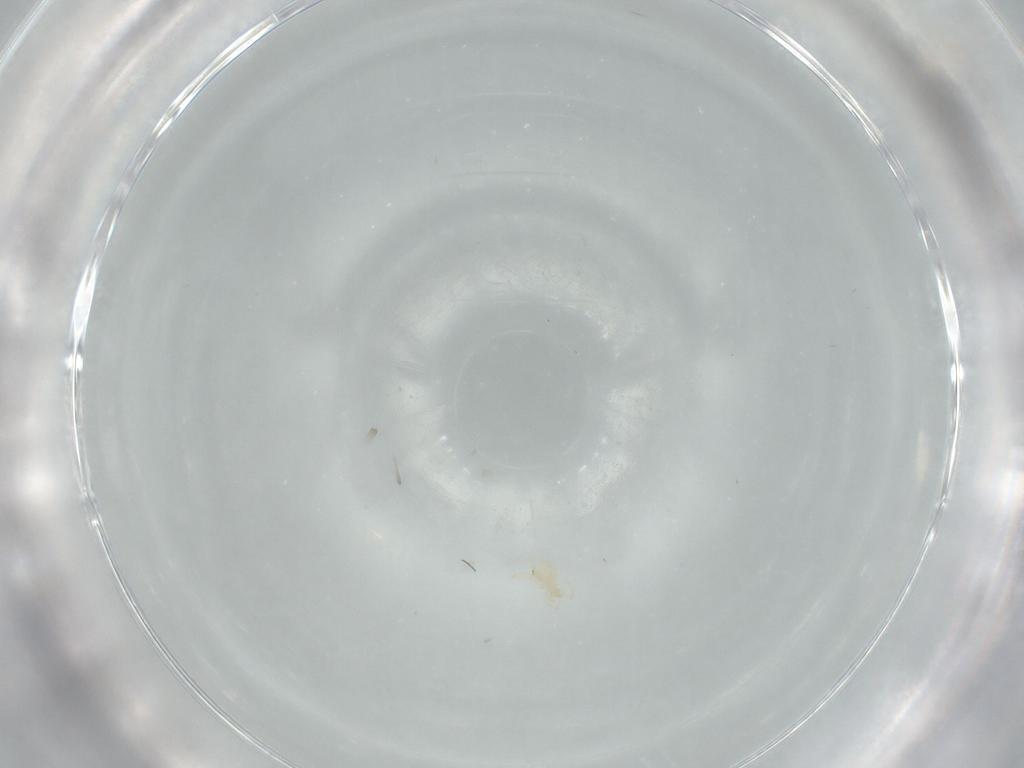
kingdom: Animalia
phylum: Arthropoda
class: Arachnida
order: Trombidiformes
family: Erythraeidae
